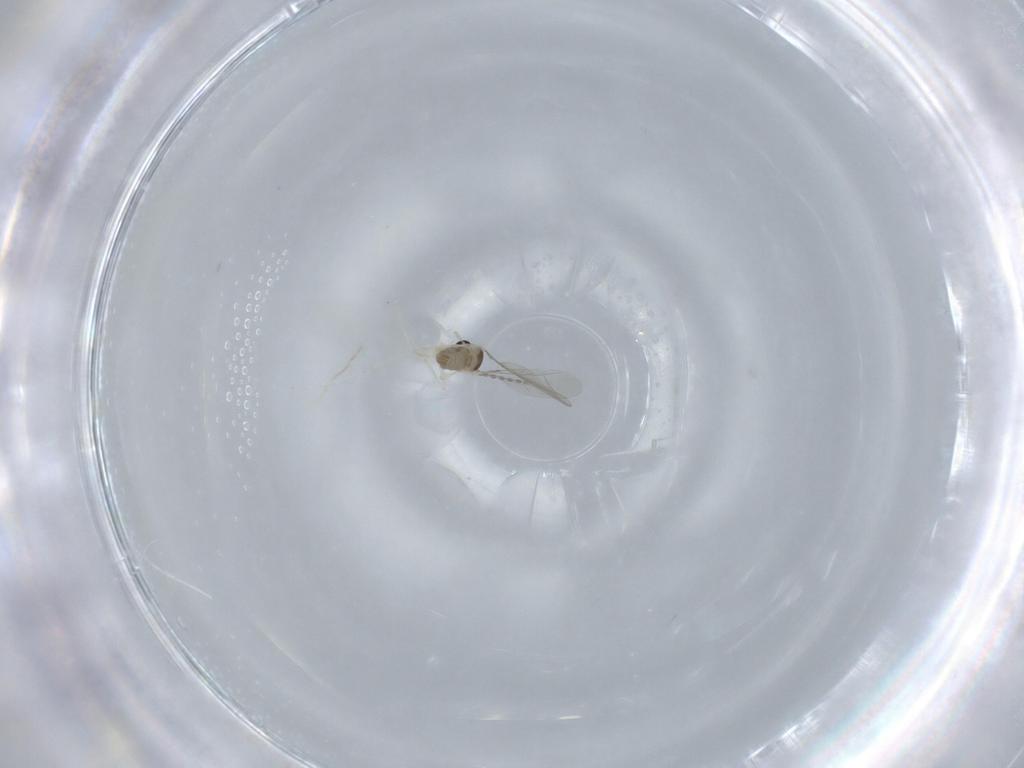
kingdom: Animalia
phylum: Arthropoda
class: Insecta
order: Diptera
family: Cecidomyiidae
